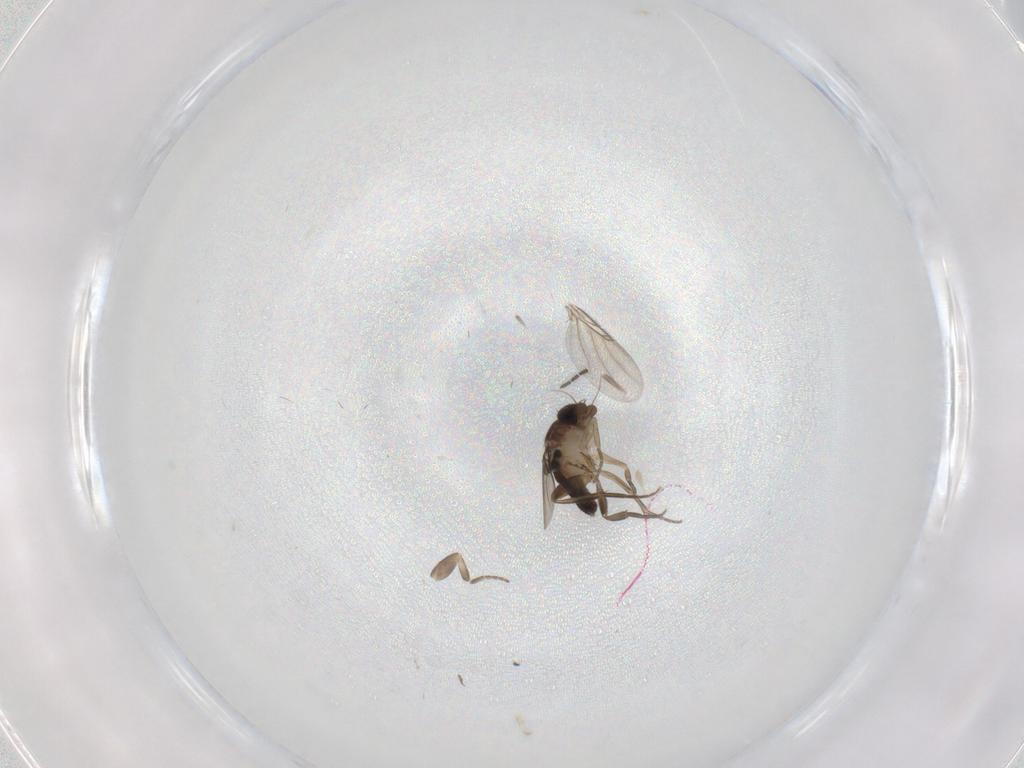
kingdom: Animalia
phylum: Arthropoda
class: Insecta
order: Diptera
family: Phoridae
